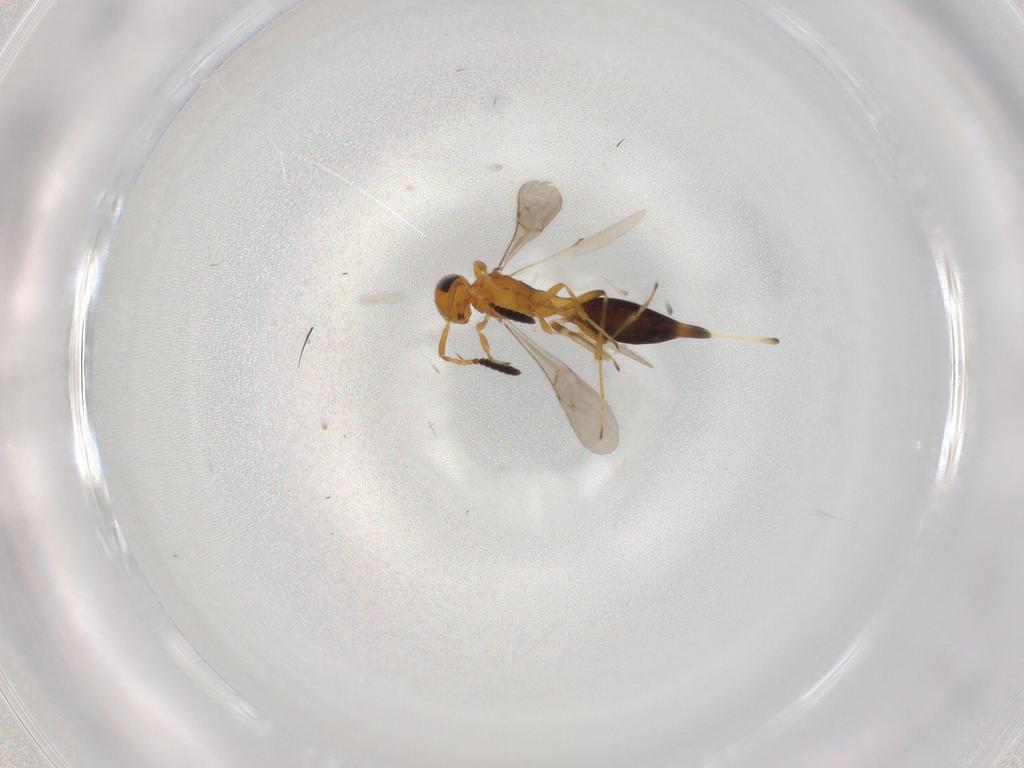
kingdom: Animalia
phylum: Arthropoda
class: Insecta
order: Hymenoptera
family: Scelionidae
